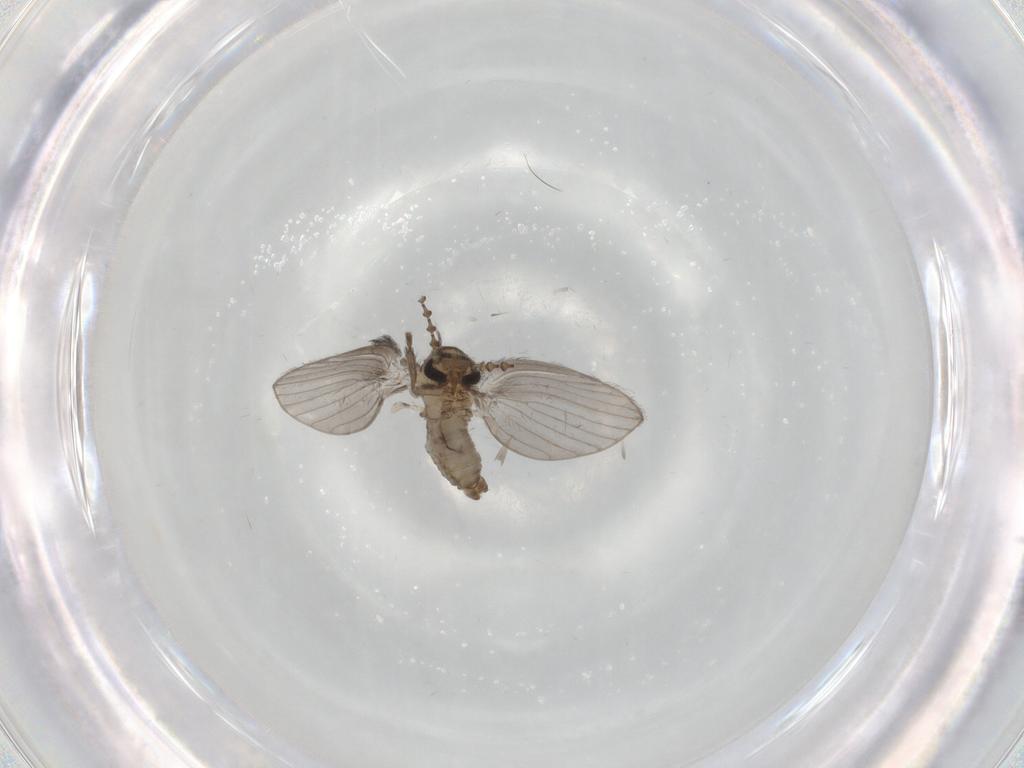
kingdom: Animalia
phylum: Arthropoda
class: Insecta
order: Diptera
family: Psychodidae
